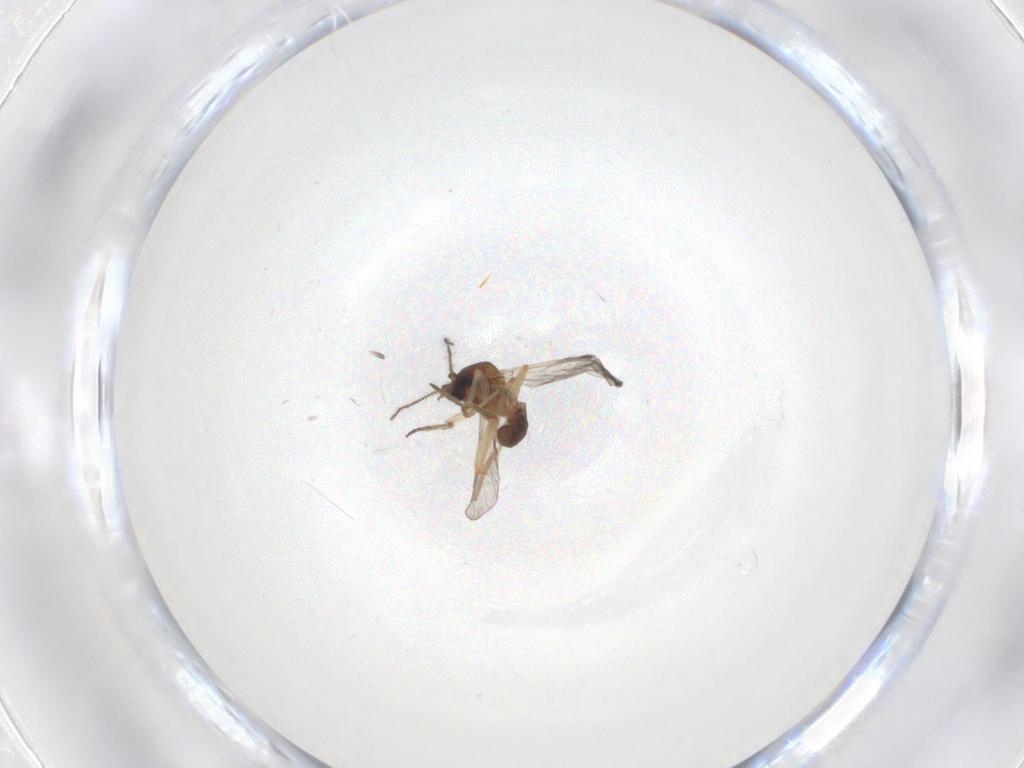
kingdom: Animalia
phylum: Arthropoda
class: Insecta
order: Diptera
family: Ceratopogonidae
